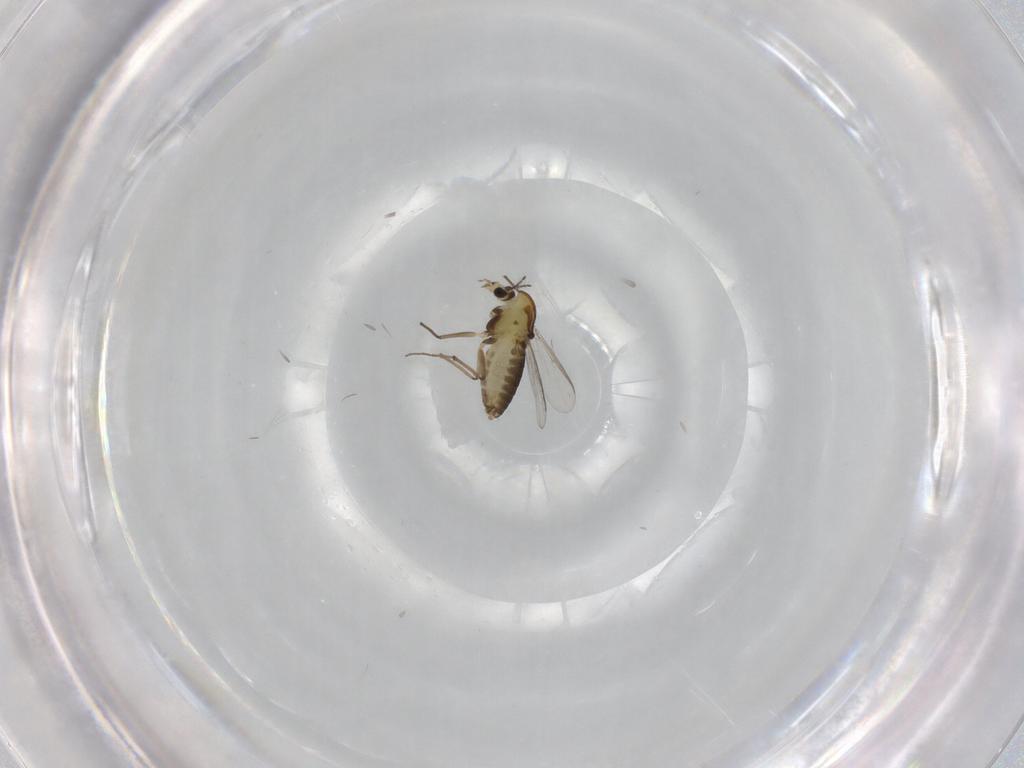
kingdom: Animalia
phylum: Arthropoda
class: Insecta
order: Diptera
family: Chironomidae
